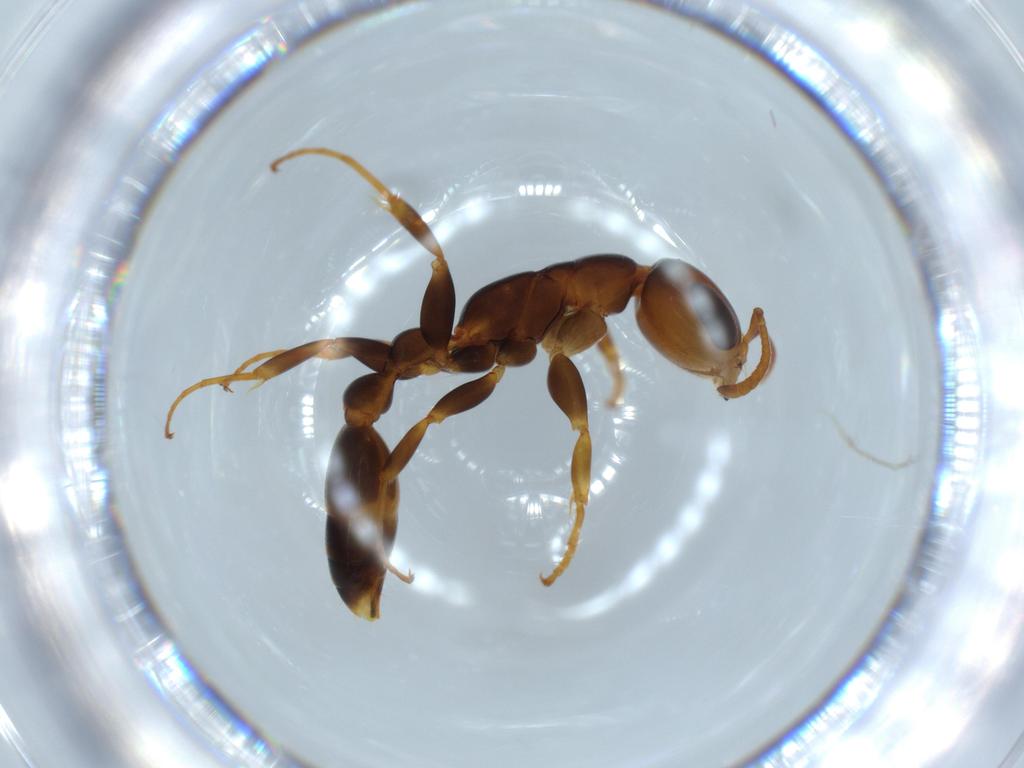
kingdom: Animalia
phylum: Arthropoda
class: Insecta
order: Hymenoptera
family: Formicidae
